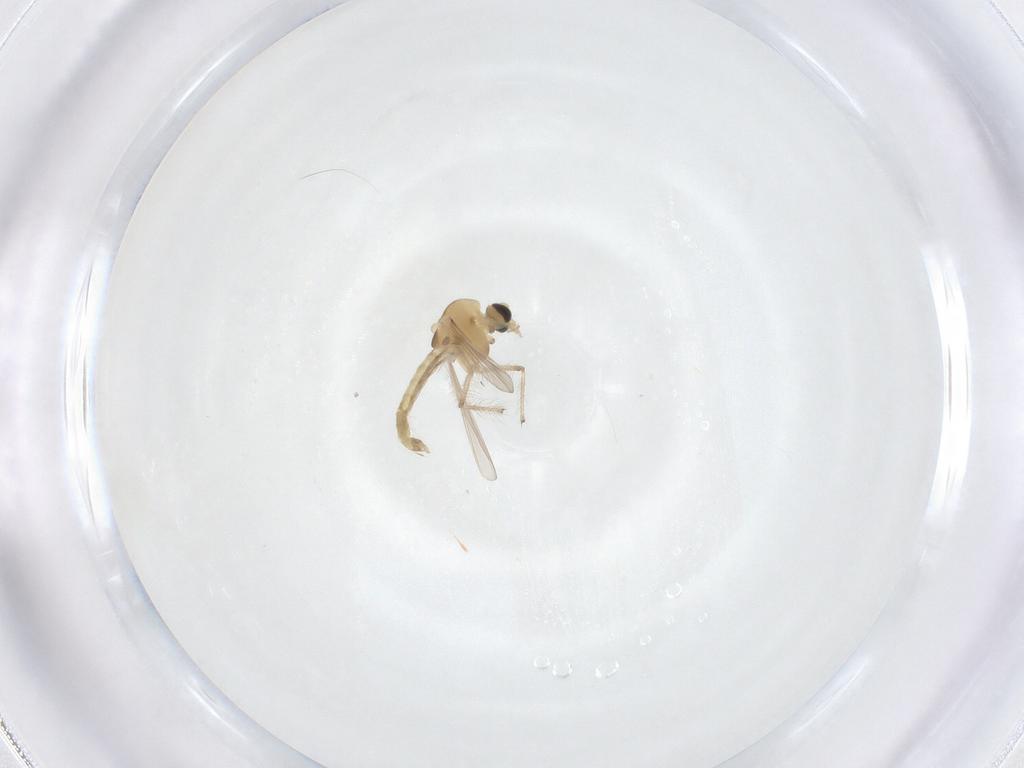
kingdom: Animalia
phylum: Arthropoda
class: Insecta
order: Diptera
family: Chironomidae
